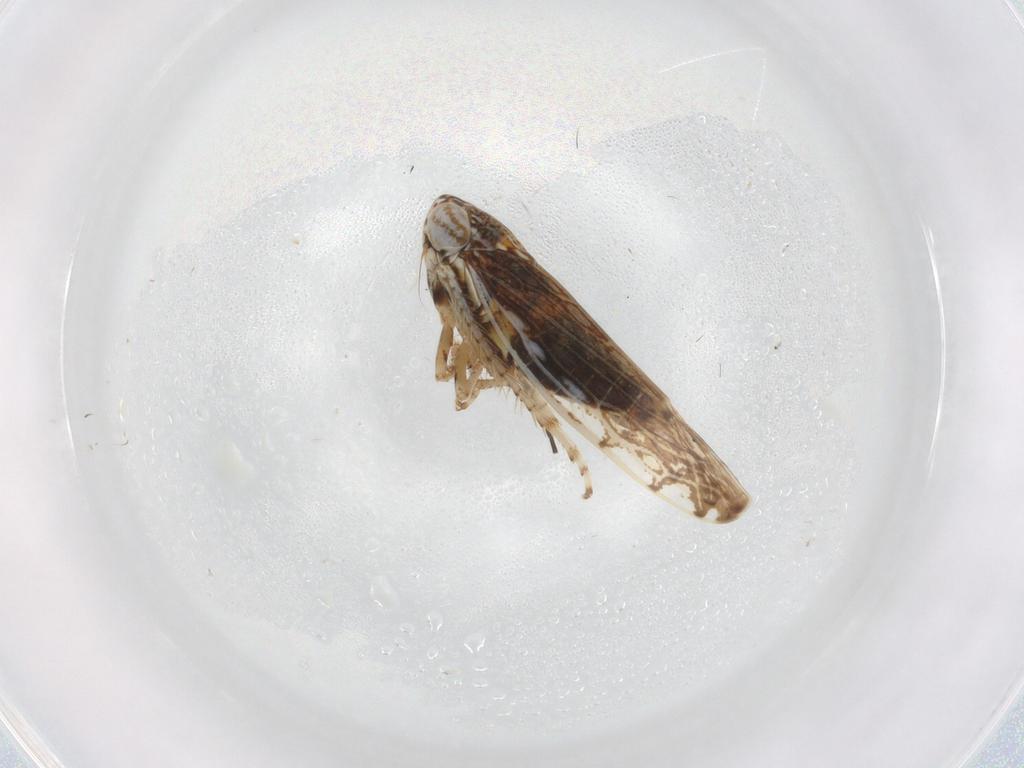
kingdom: Animalia
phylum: Arthropoda
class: Insecta
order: Hemiptera
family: Cicadellidae
